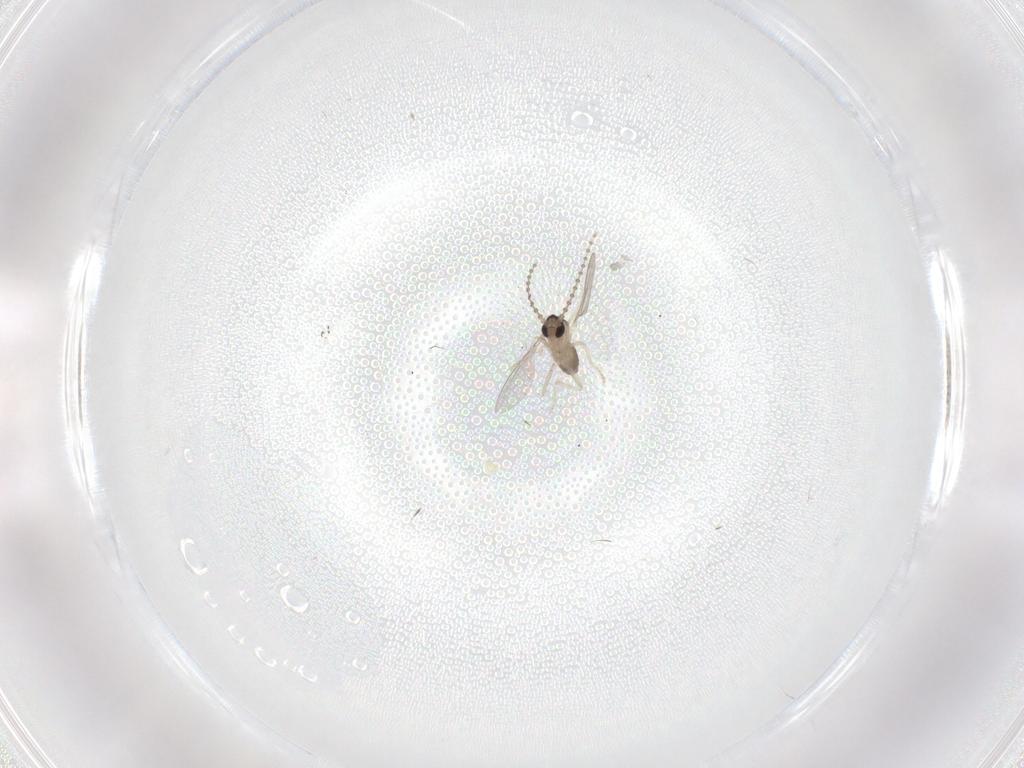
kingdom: Animalia
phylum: Arthropoda
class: Insecta
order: Diptera
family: Cecidomyiidae
